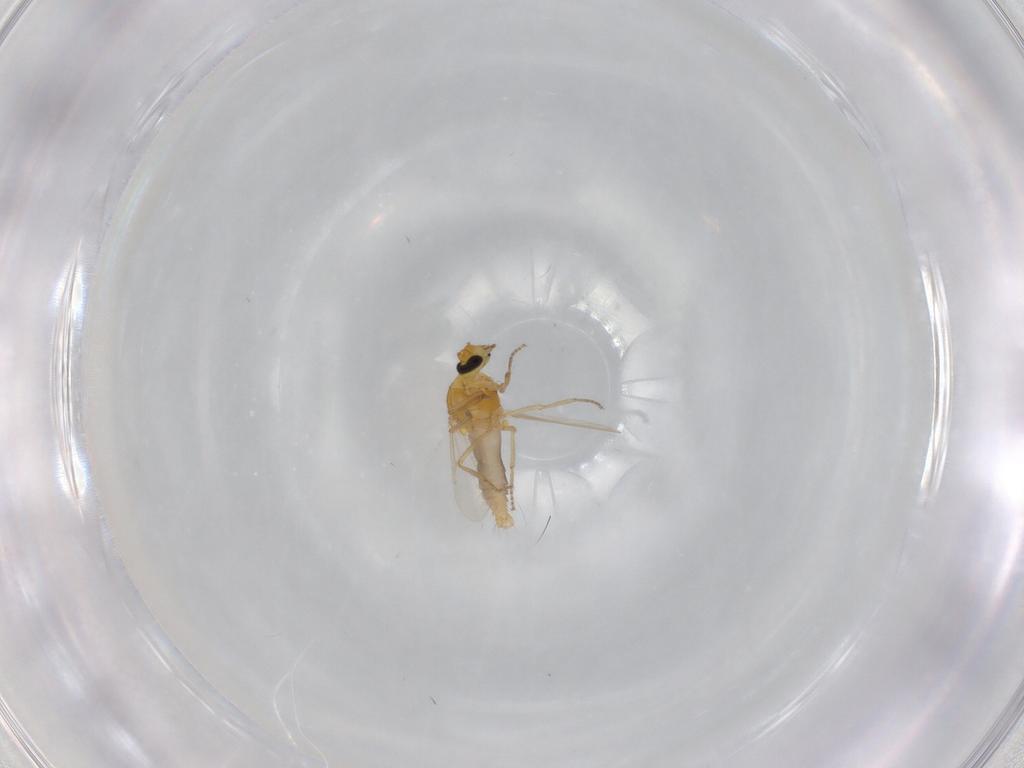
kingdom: Animalia
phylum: Arthropoda
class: Insecta
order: Diptera
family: Ceratopogonidae
